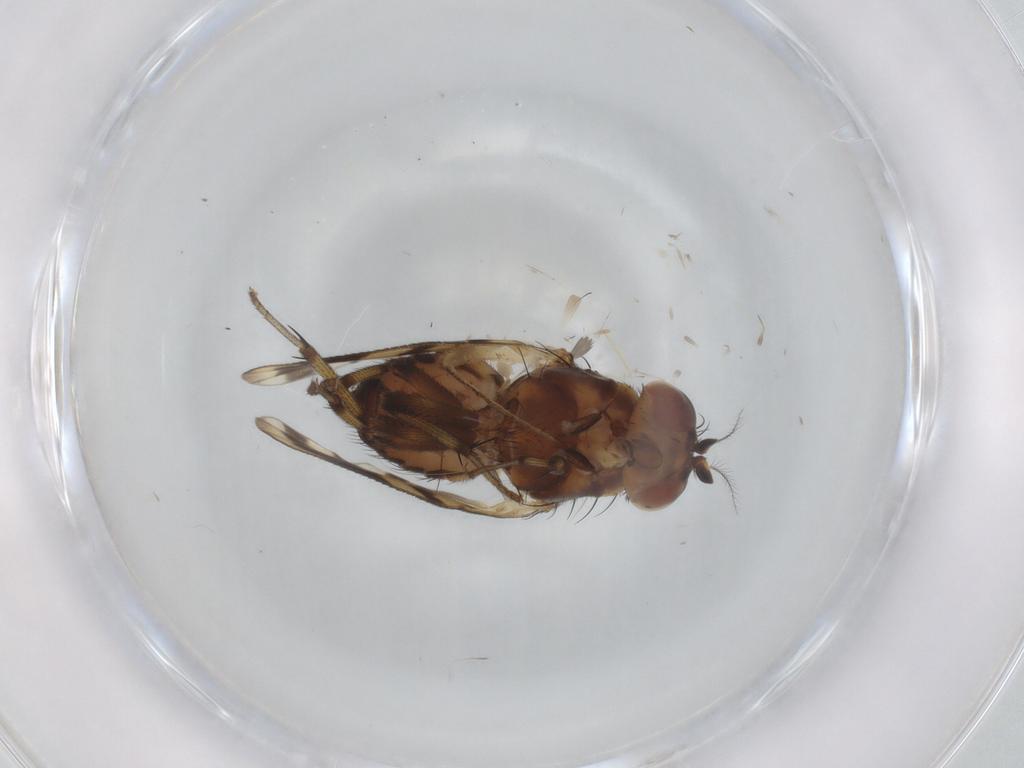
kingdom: Animalia
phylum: Arthropoda
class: Insecta
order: Diptera
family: Chironomidae
